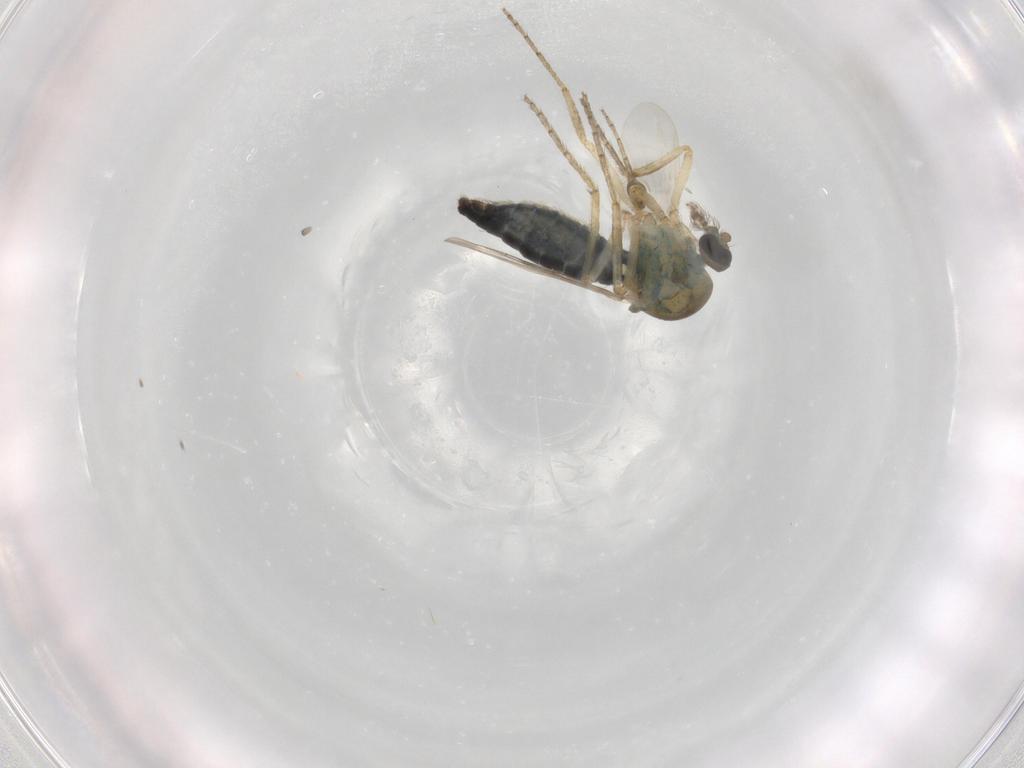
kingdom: Animalia
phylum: Arthropoda
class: Insecta
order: Diptera
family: Ceratopogonidae
